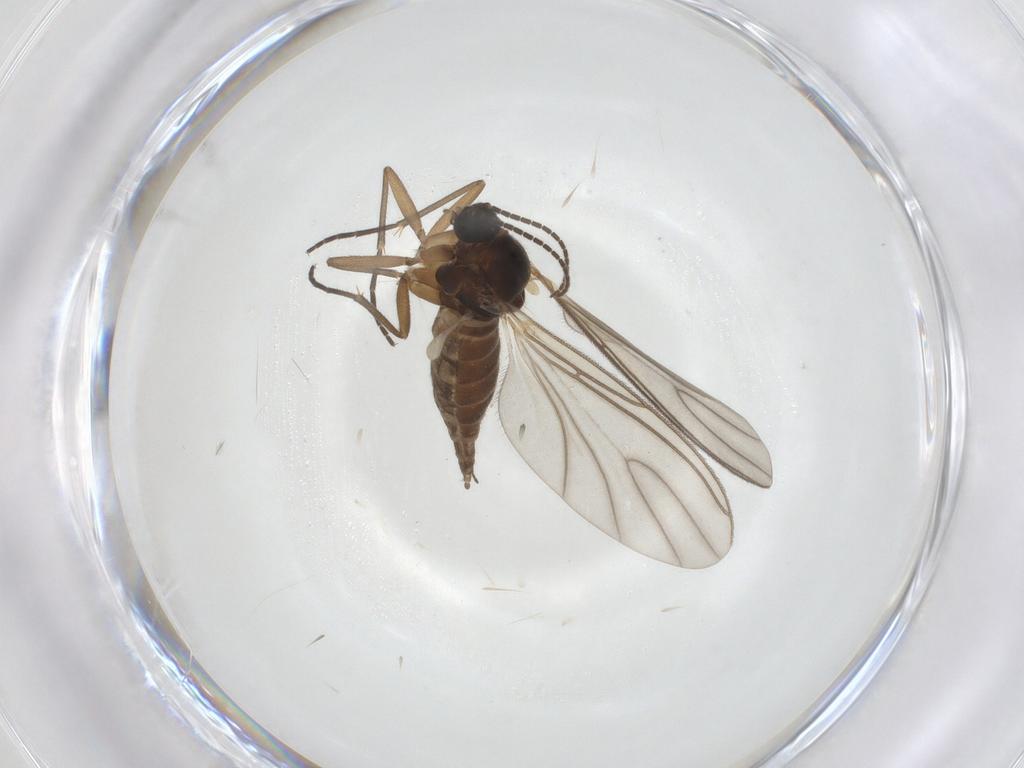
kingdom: Animalia
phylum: Arthropoda
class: Insecta
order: Diptera
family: Sciaridae
